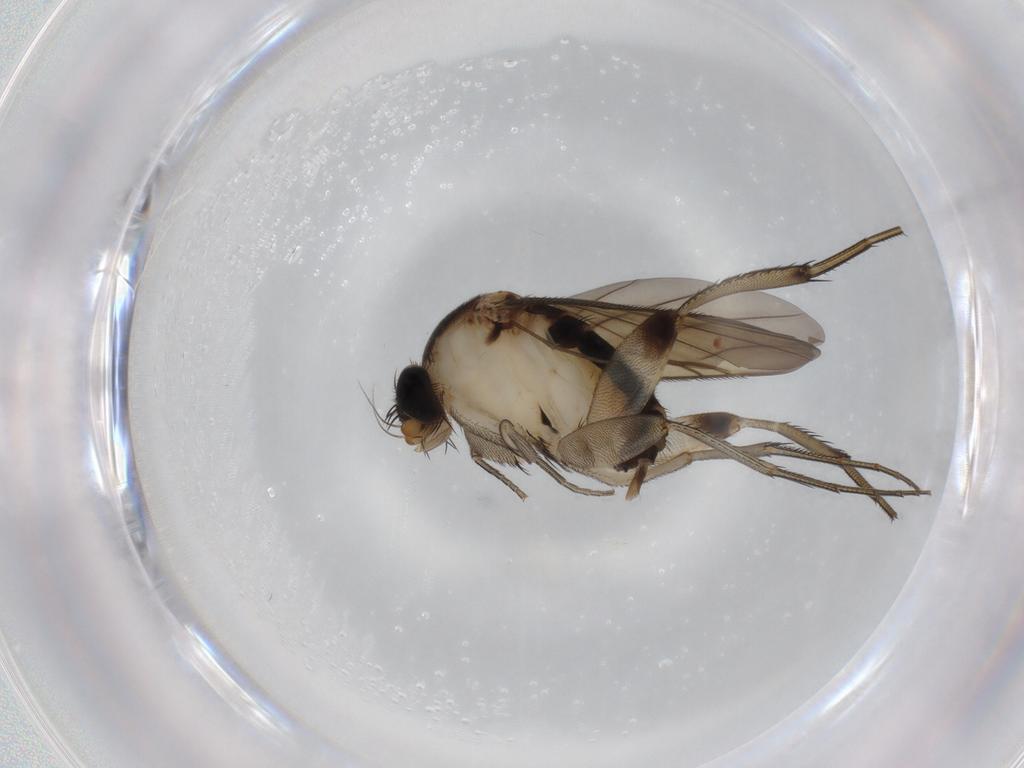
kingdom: Animalia
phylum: Arthropoda
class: Insecta
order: Diptera
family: Phoridae
